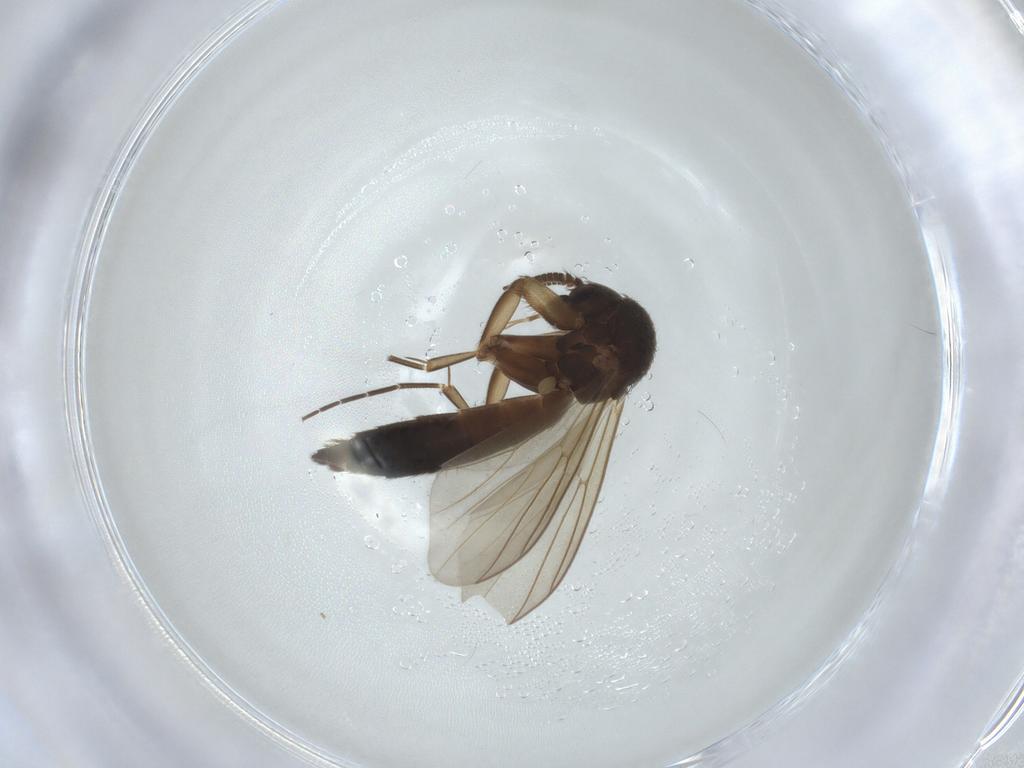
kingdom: Animalia
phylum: Arthropoda
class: Insecta
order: Diptera
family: Mycetophilidae
